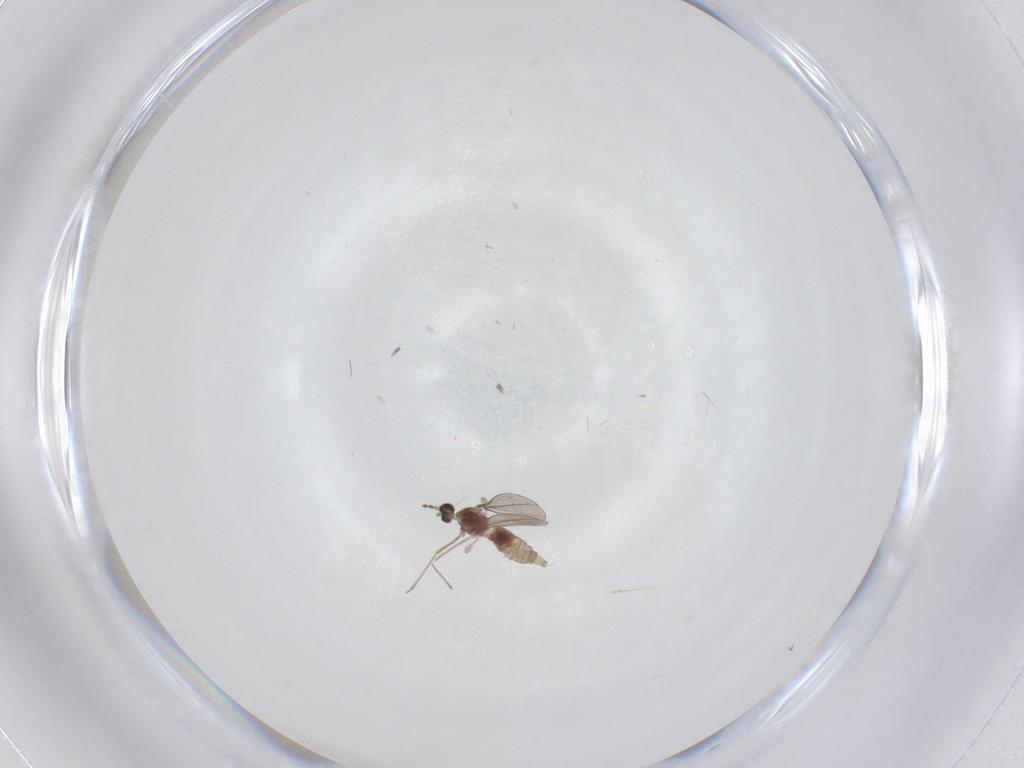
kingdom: Animalia
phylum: Arthropoda
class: Insecta
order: Diptera
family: Cecidomyiidae
